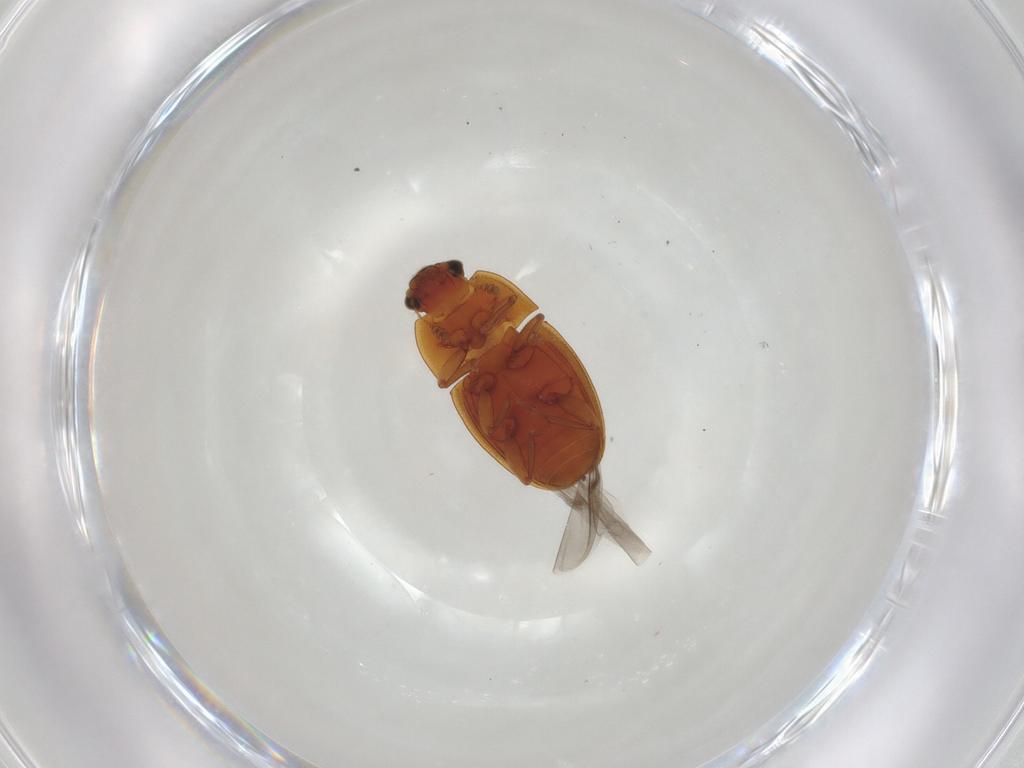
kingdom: Animalia
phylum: Arthropoda
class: Insecta
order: Coleoptera
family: Nitidulidae
